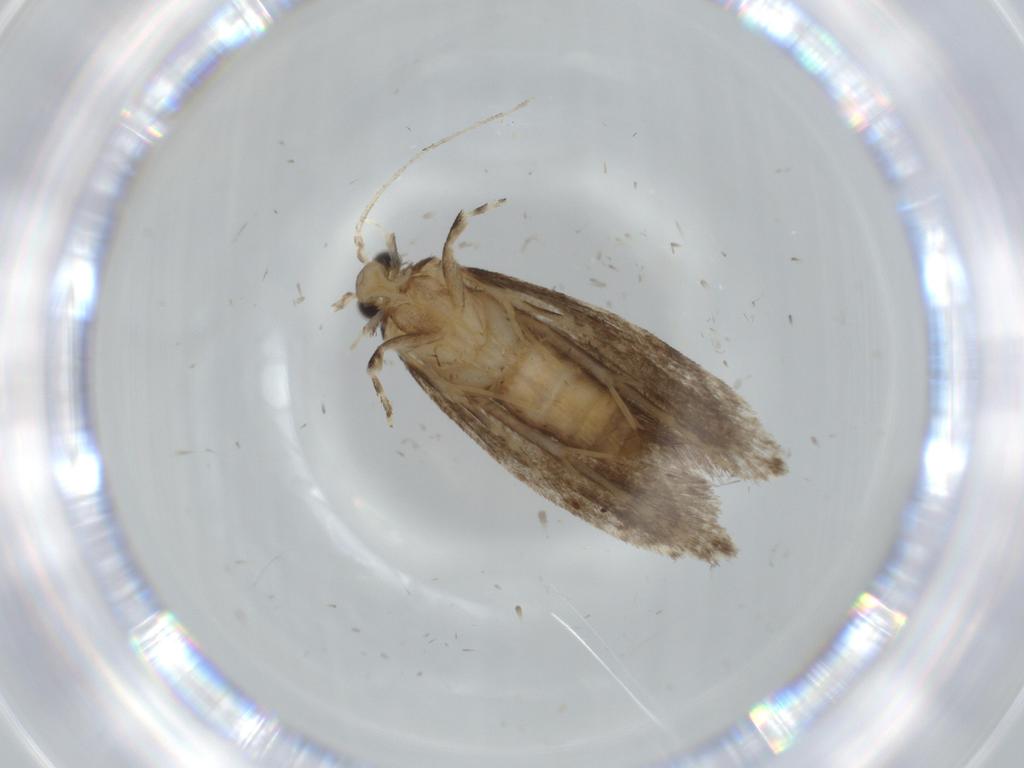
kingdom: Animalia
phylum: Arthropoda
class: Insecta
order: Lepidoptera
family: Tineidae
